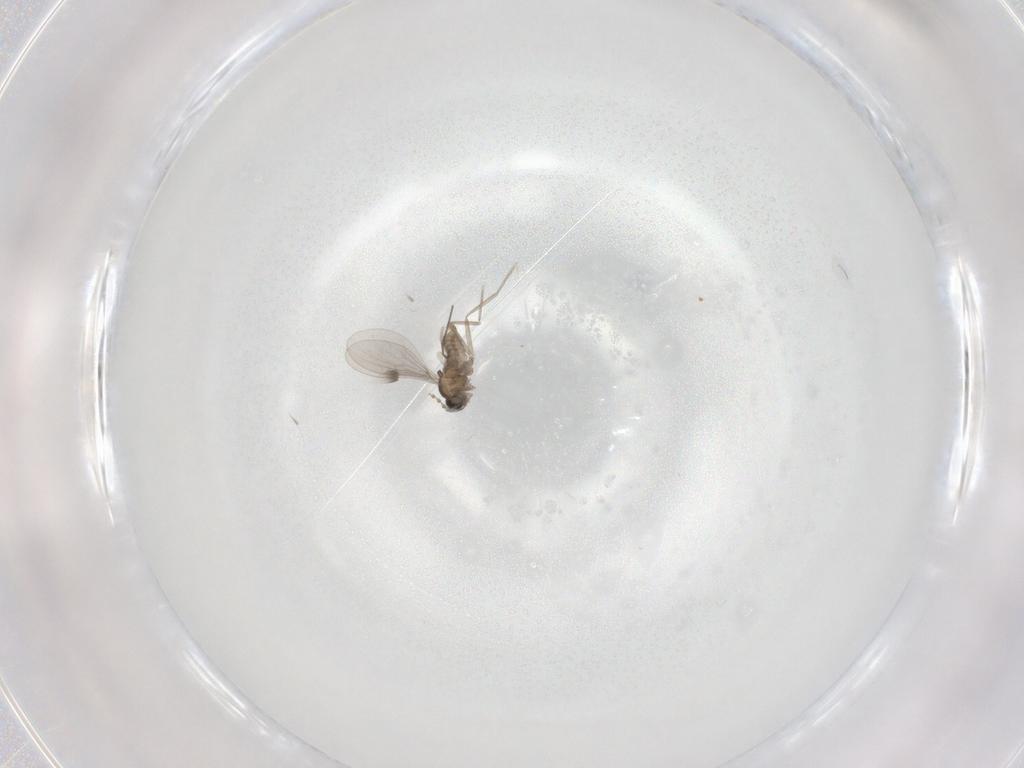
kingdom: Animalia
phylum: Arthropoda
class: Insecta
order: Diptera
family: Cecidomyiidae
